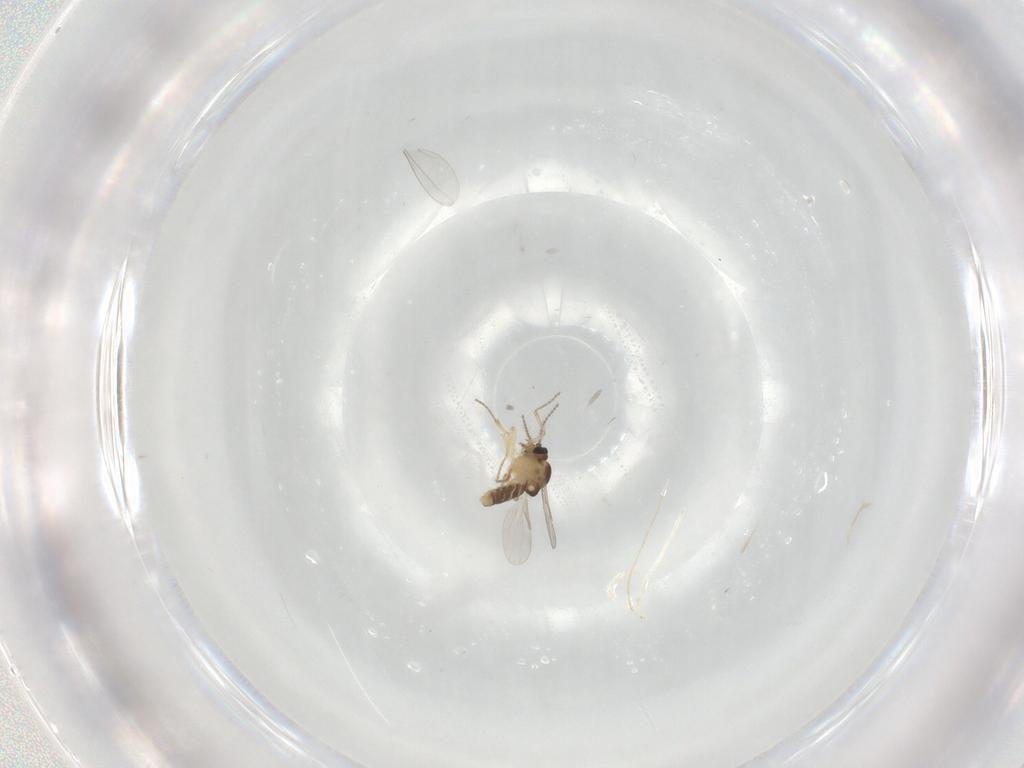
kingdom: Animalia
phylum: Arthropoda
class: Insecta
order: Diptera
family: Ceratopogonidae
